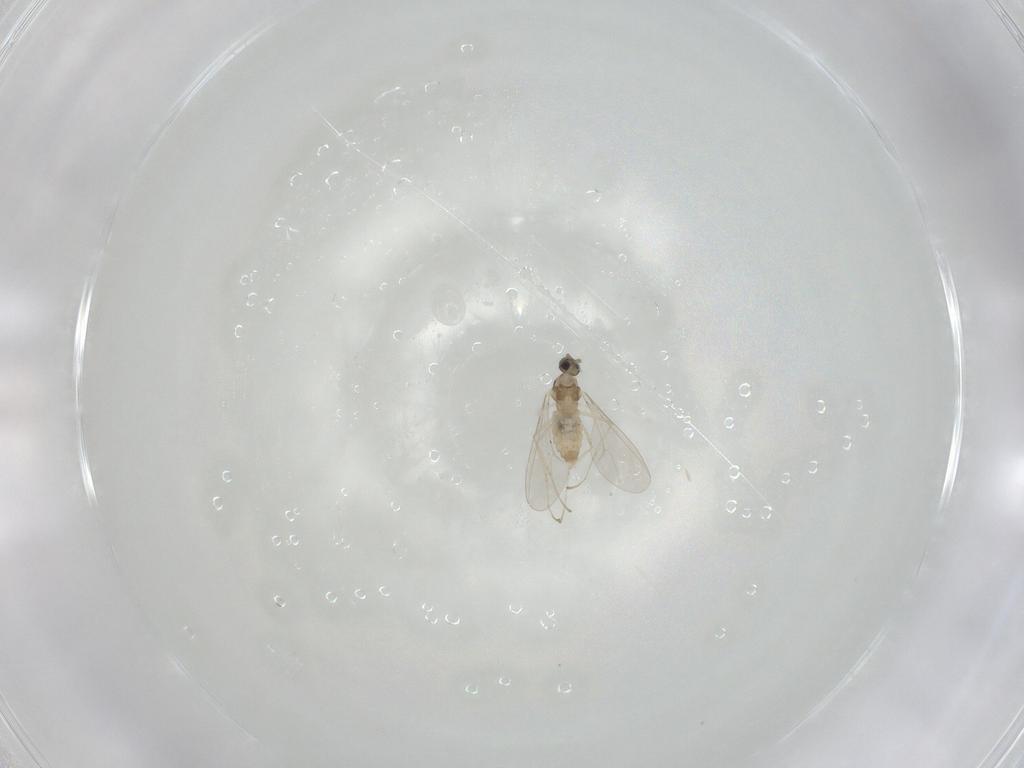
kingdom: Animalia
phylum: Arthropoda
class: Insecta
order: Diptera
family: Cecidomyiidae
